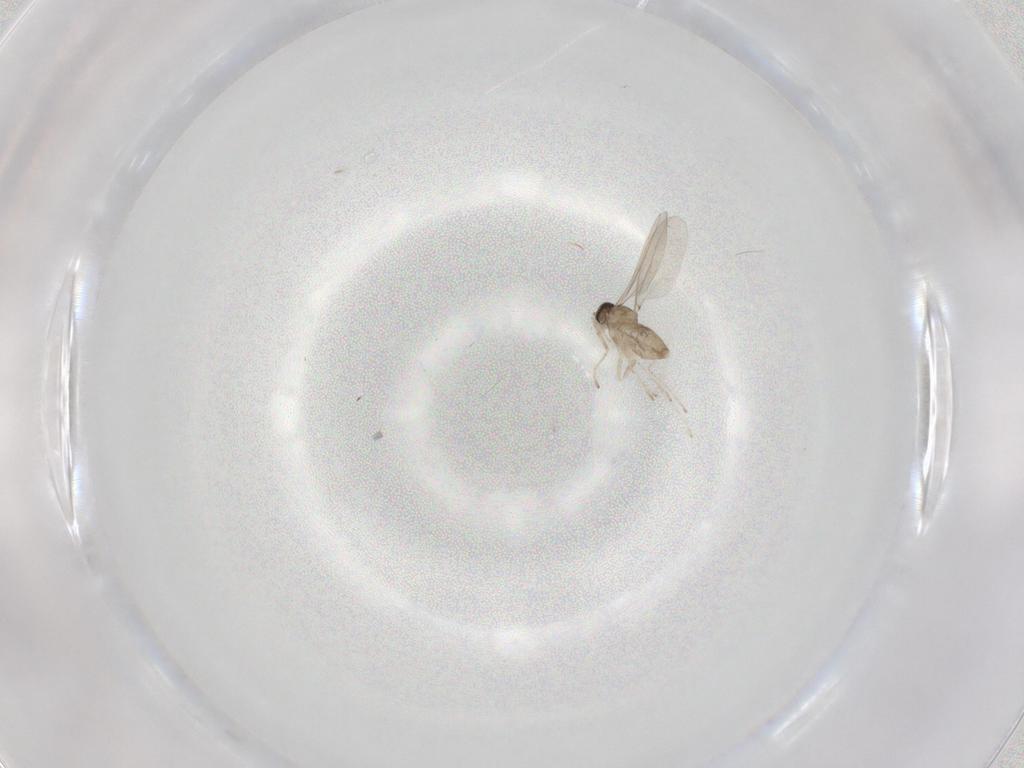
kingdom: Animalia
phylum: Arthropoda
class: Insecta
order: Diptera
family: Cecidomyiidae
